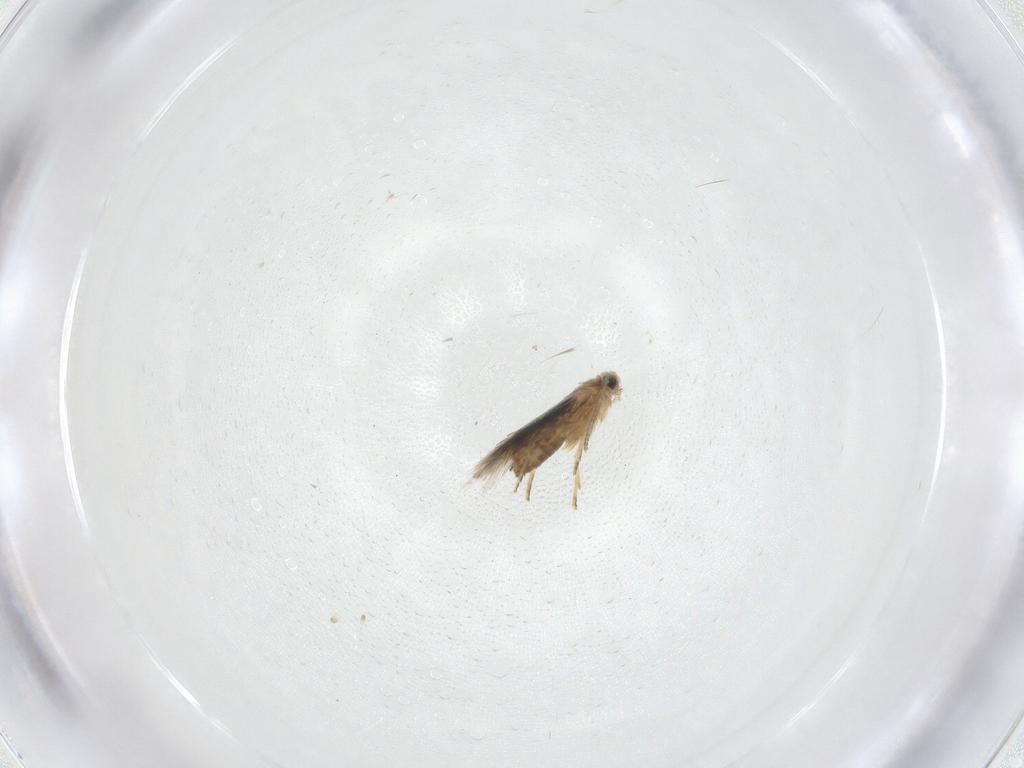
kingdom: Animalia
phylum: Arthropoda
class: Insecta
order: Lepidoptera
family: Nepticulidae
